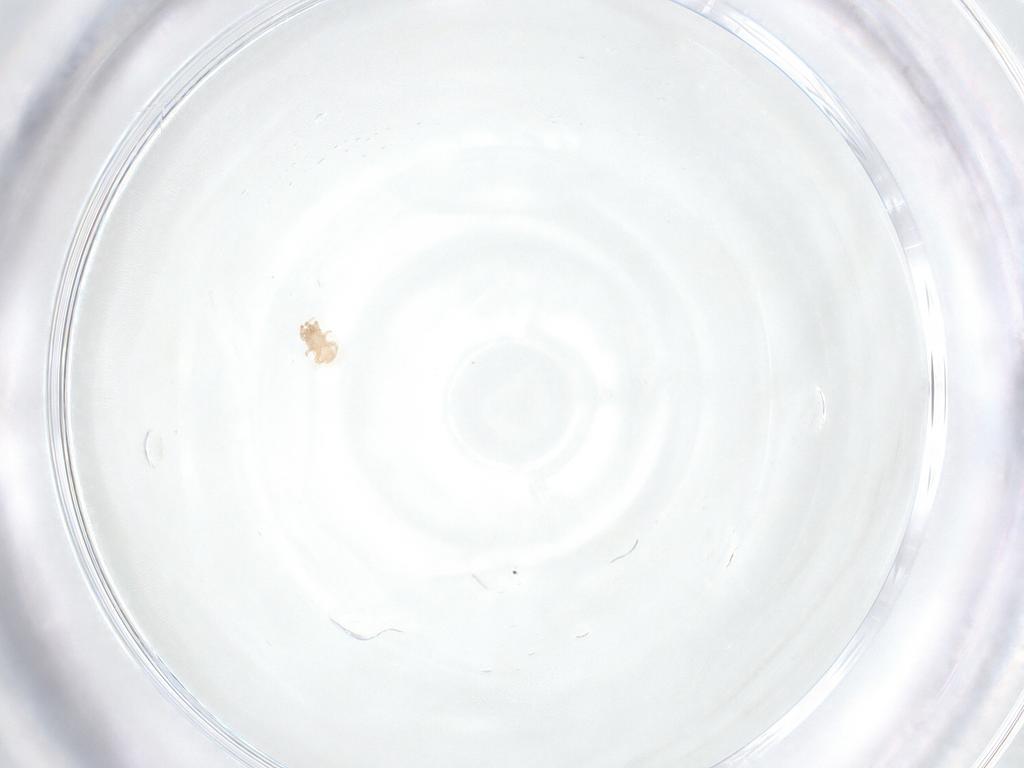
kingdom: Animalia
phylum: Arthropoda
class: Arachnida
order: Mesostigmata
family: Digamasellidae
